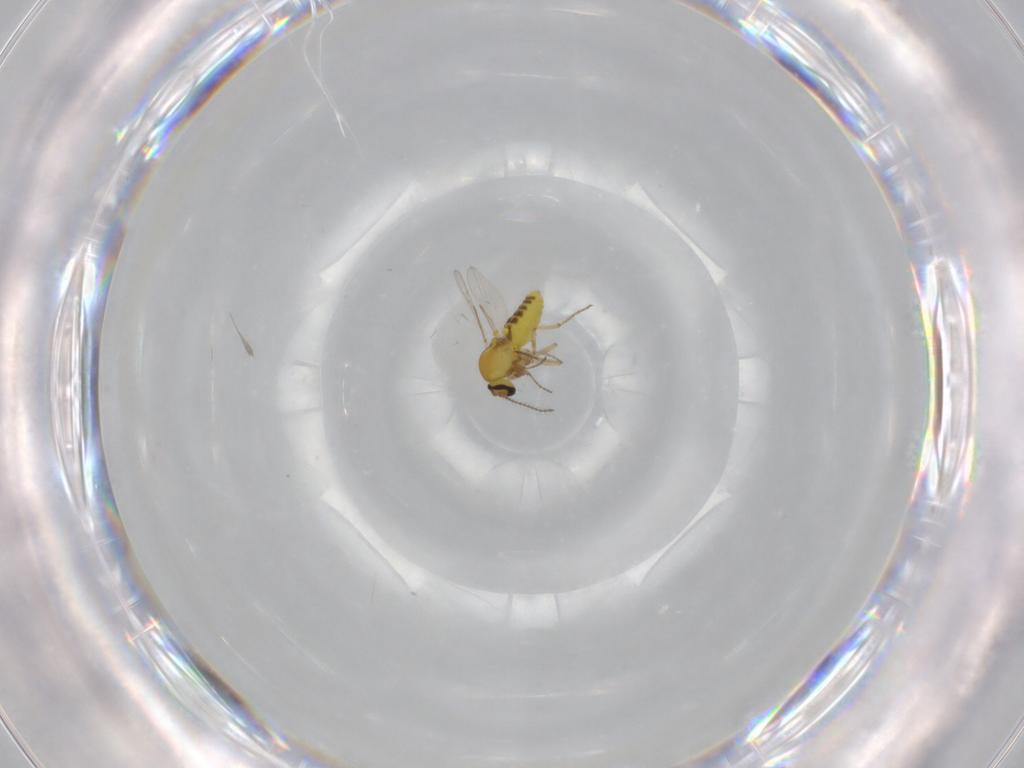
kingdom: Animalia
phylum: Arthropoda
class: Insecta
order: Diptera
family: Ceratopogonidae
